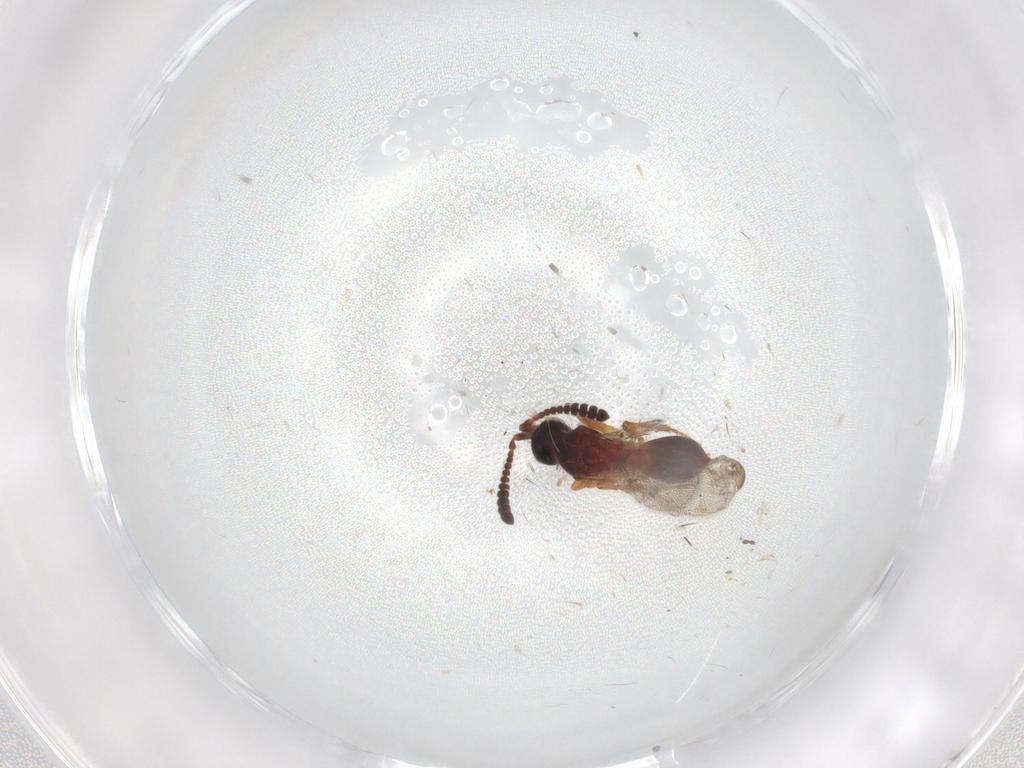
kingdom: Animalia
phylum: Arthropoda
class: Insecta
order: Hymenoptera
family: Diapriidae
